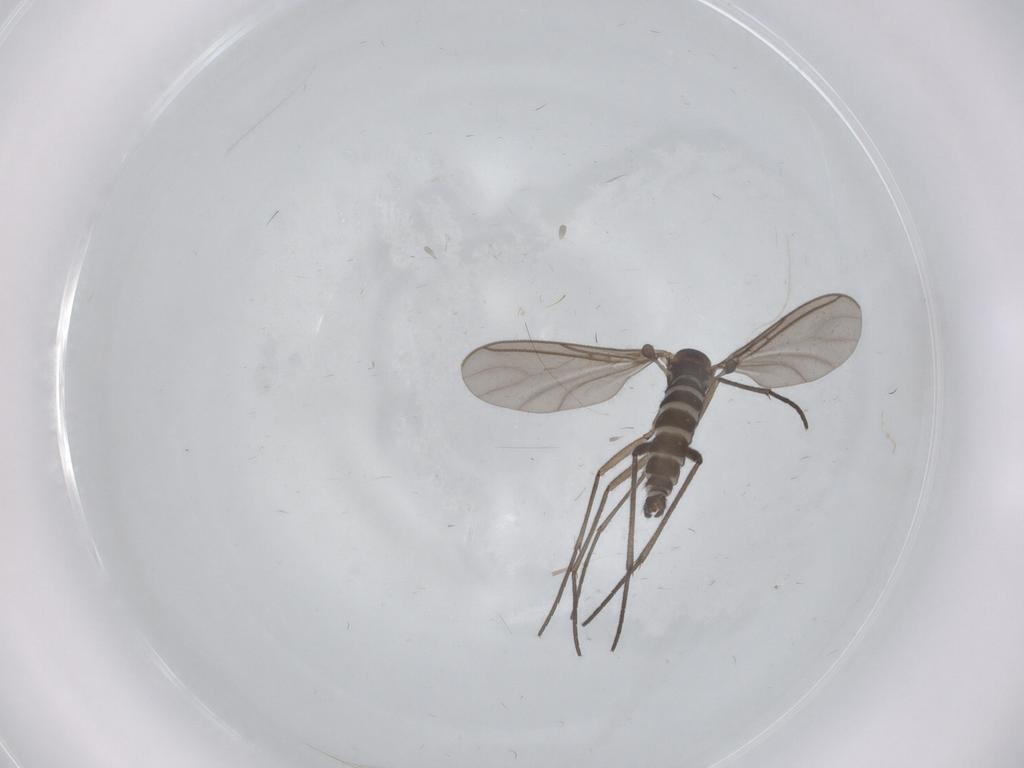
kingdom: Animalia
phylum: Arthropoda
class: Insecta
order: Diptera
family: Sciaridae
